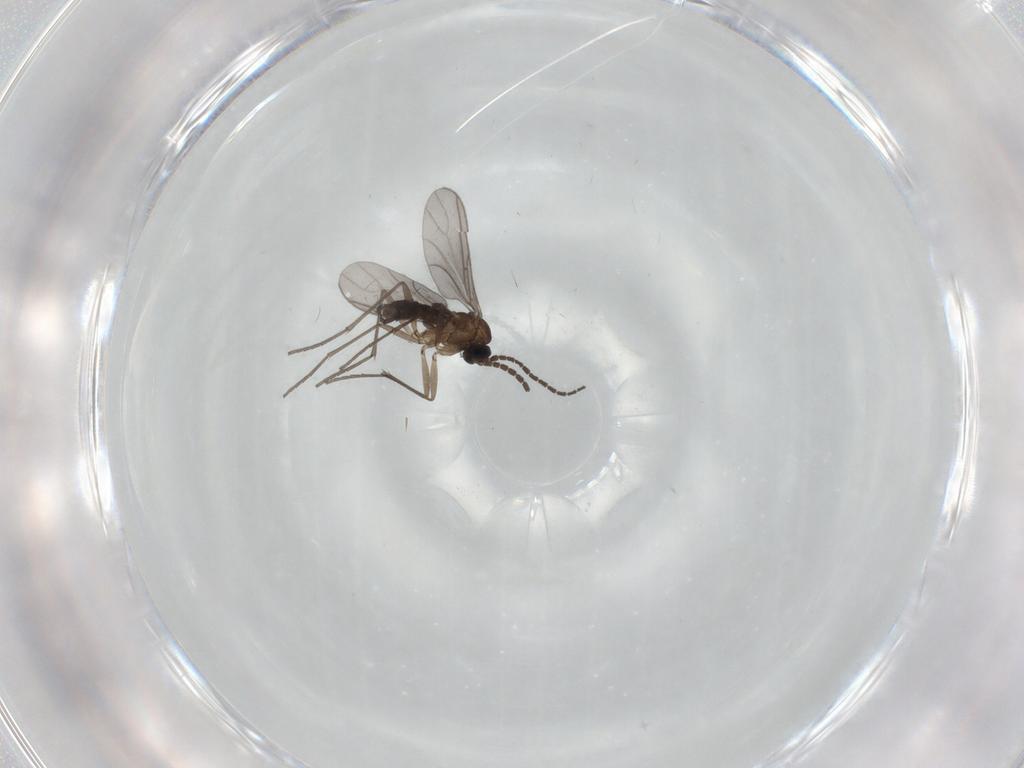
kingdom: Animalia
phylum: Arthropoda
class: Insecta
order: Diptera
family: Sciaridae
